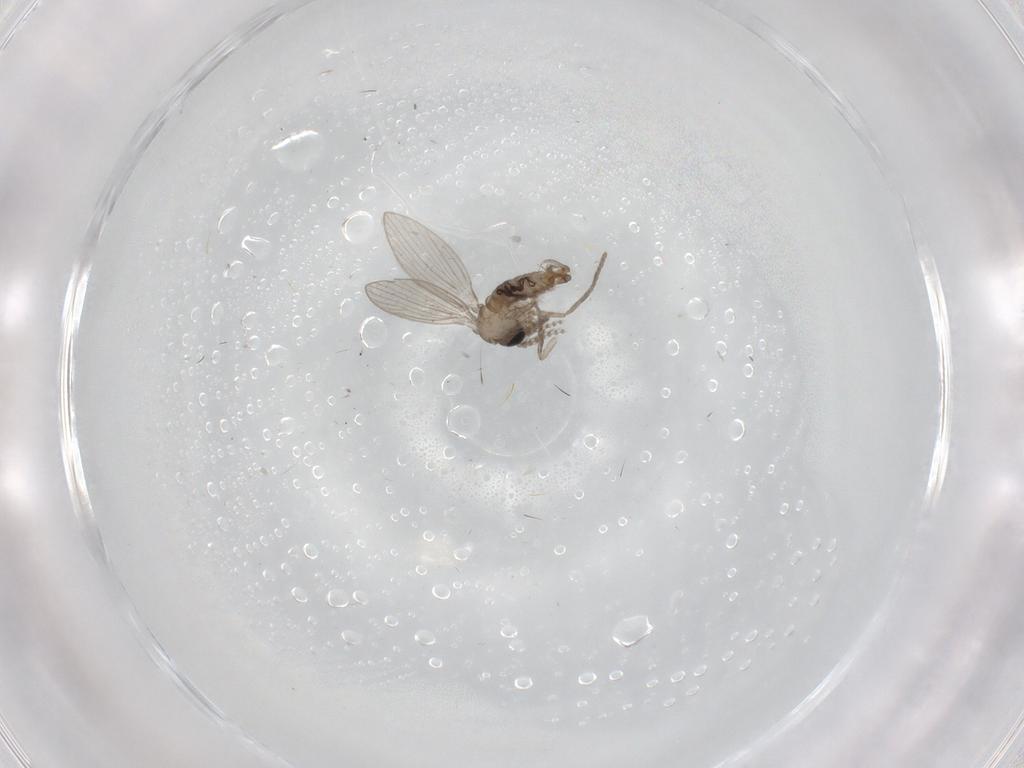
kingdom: Animalia
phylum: Arthropoda
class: Insecta
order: Diptera
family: Psychodidae
